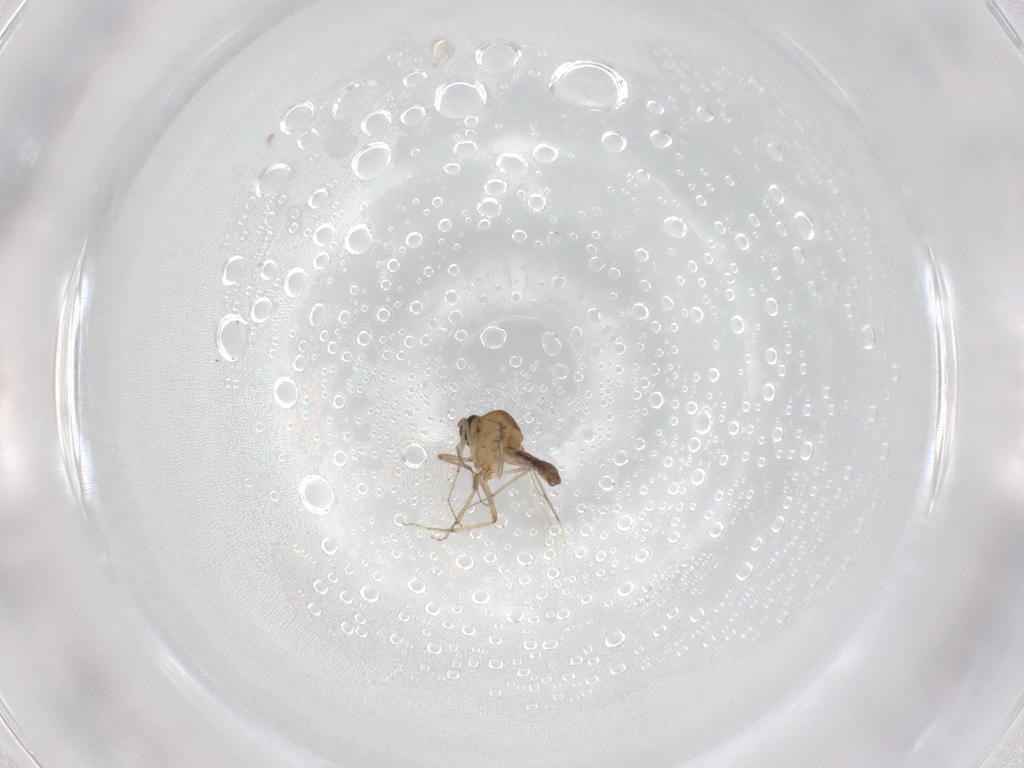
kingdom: Animalia
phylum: Arthropoda
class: Insecta
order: Diptera
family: Ceratopogonidae
